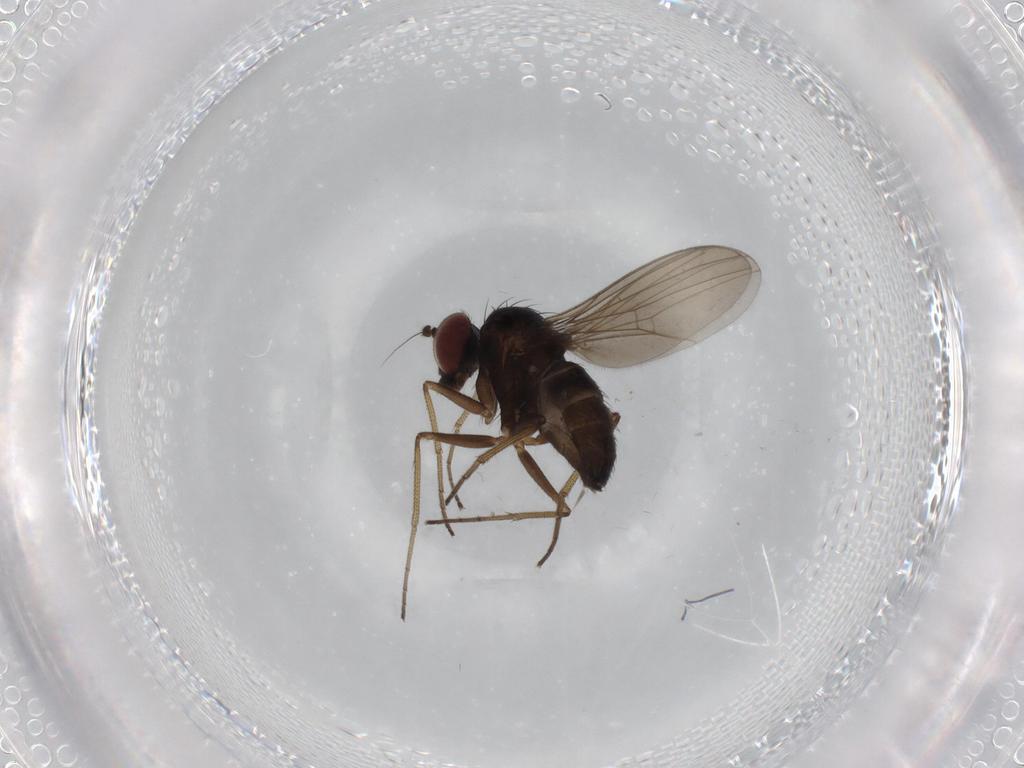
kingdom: Animalia
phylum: Arthropoda
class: Insecta
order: Diptera
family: Dolichopodidae
